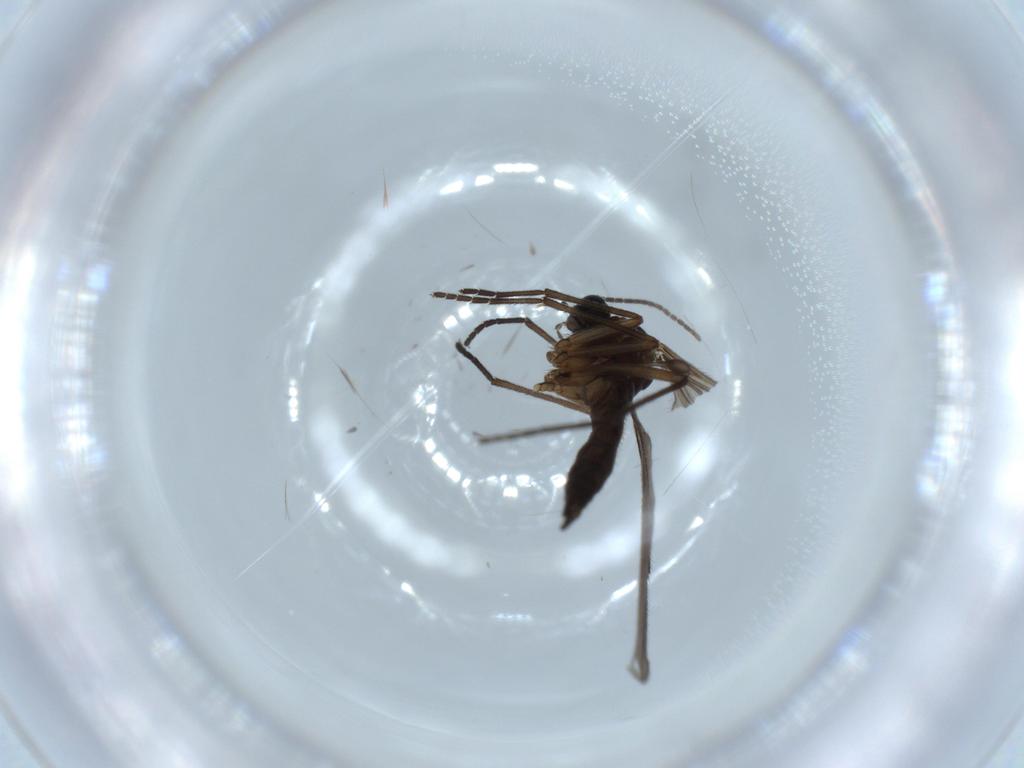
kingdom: Animalia
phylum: Arthropoda
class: Insecta
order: Diptera
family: Sciaridae
